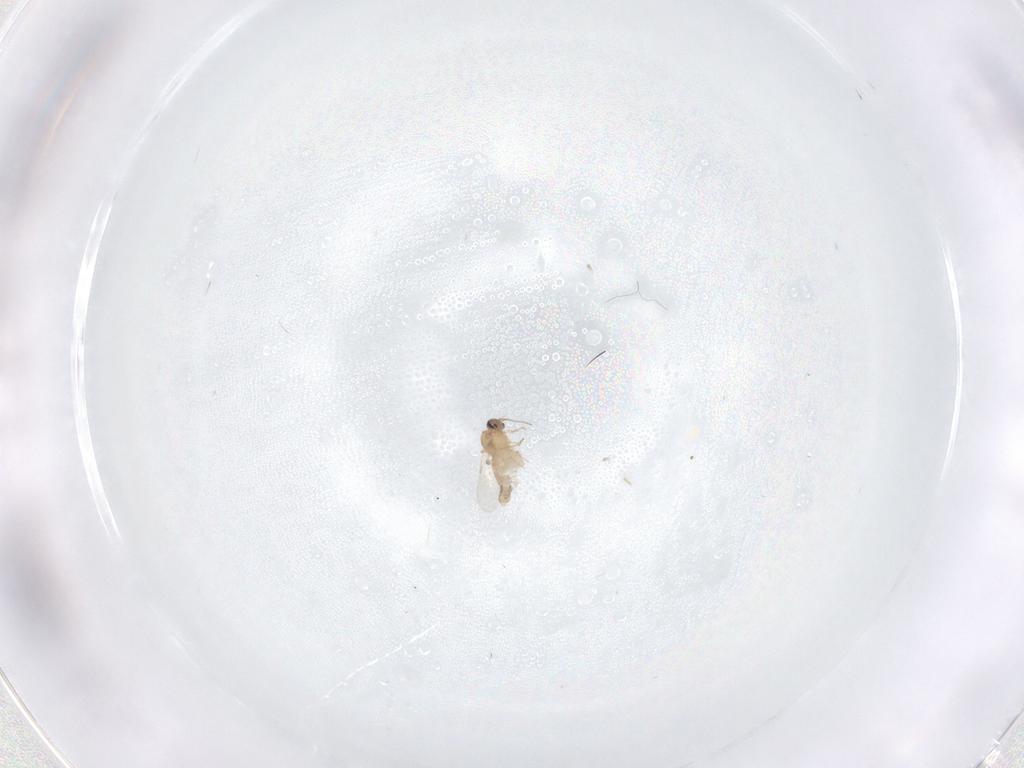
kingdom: Animalia
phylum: Arthropoda
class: Insecta
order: Diptera
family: Ceratopogonidae
